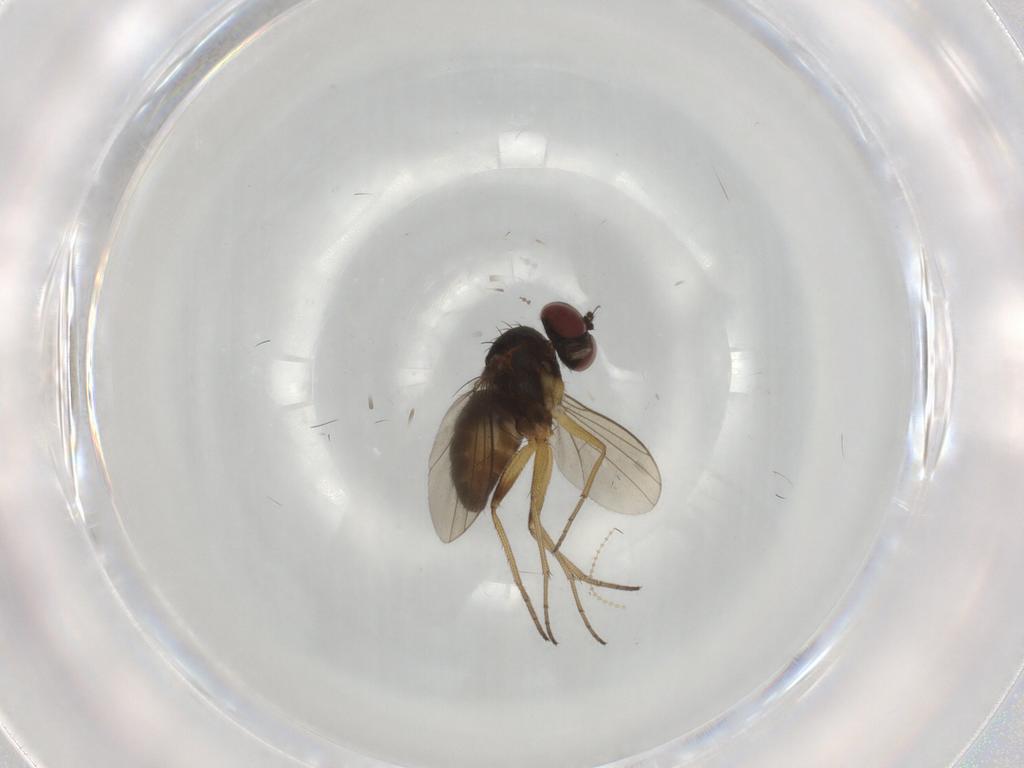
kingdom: Animalia
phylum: Arthropoda
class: Insecta
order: Diptera
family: Dolichopodidae
